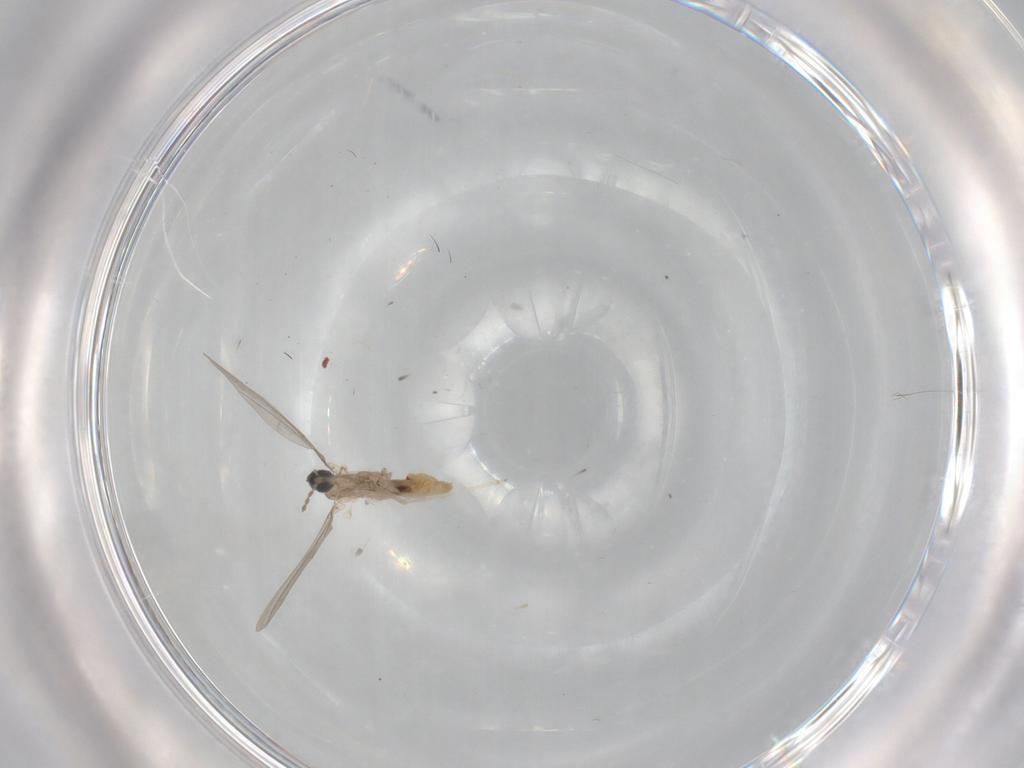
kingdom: Animalia
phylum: Arthropoda
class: Insecta
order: Diptera
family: Cecidomyiidae
